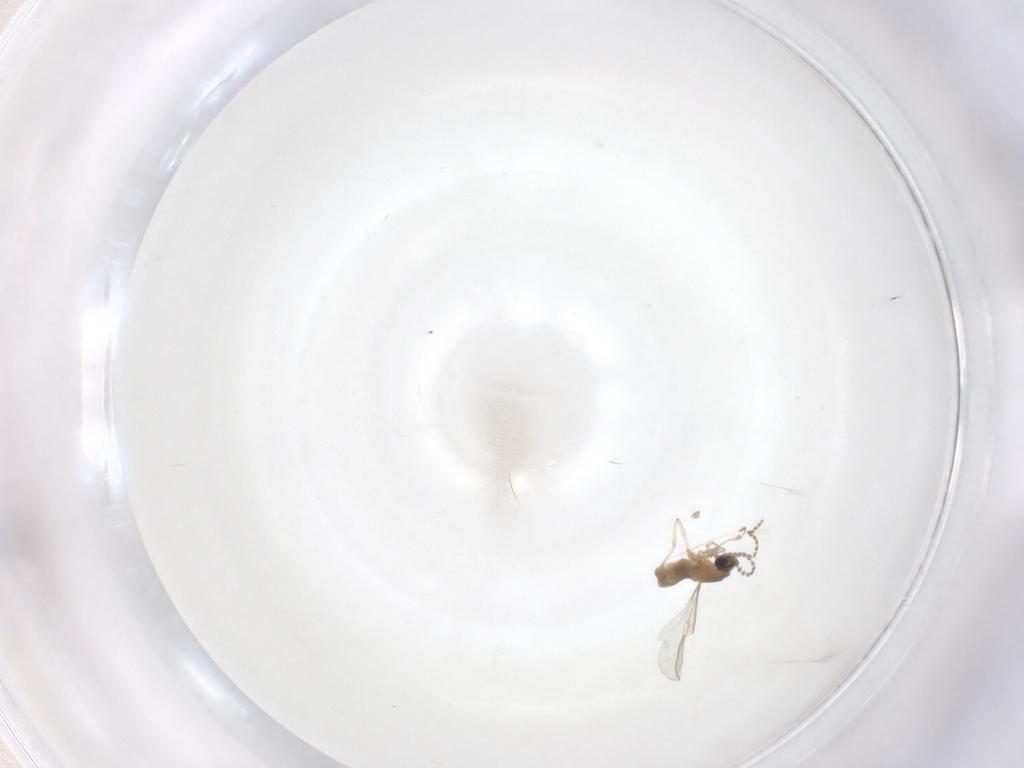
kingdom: Animalia
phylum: Arthropoda
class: Insecta
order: Diptera
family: Cecidomyiidae
